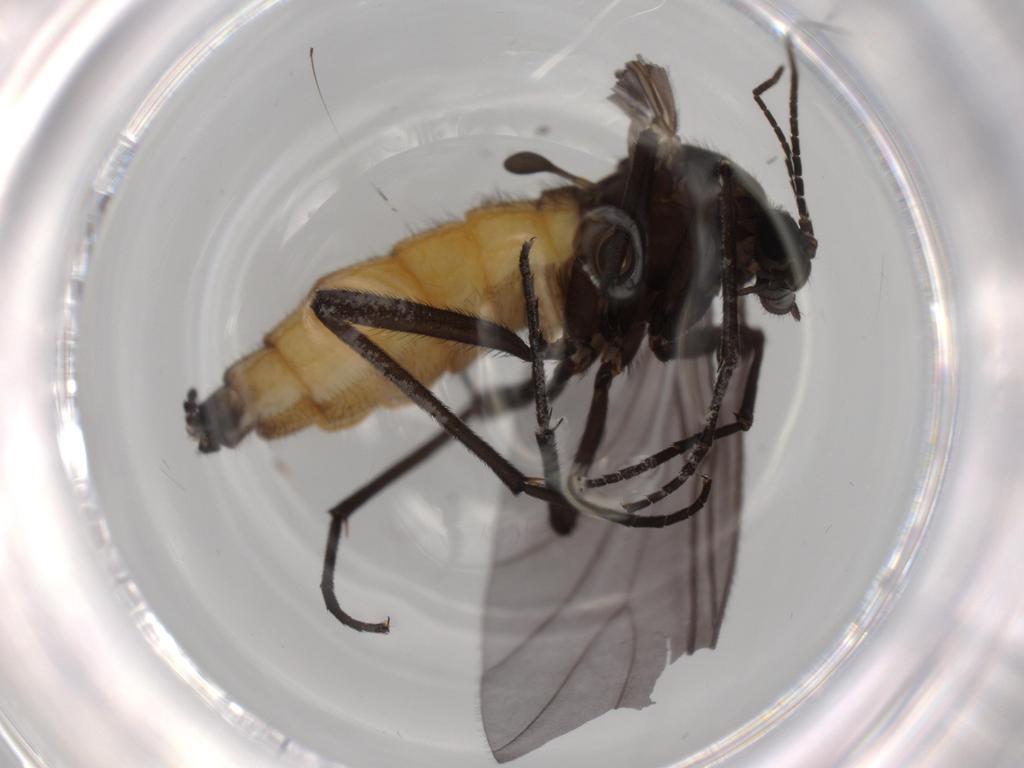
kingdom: Animalia
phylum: Arthropoda
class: Insecta
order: Diptera
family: Sciaridae
